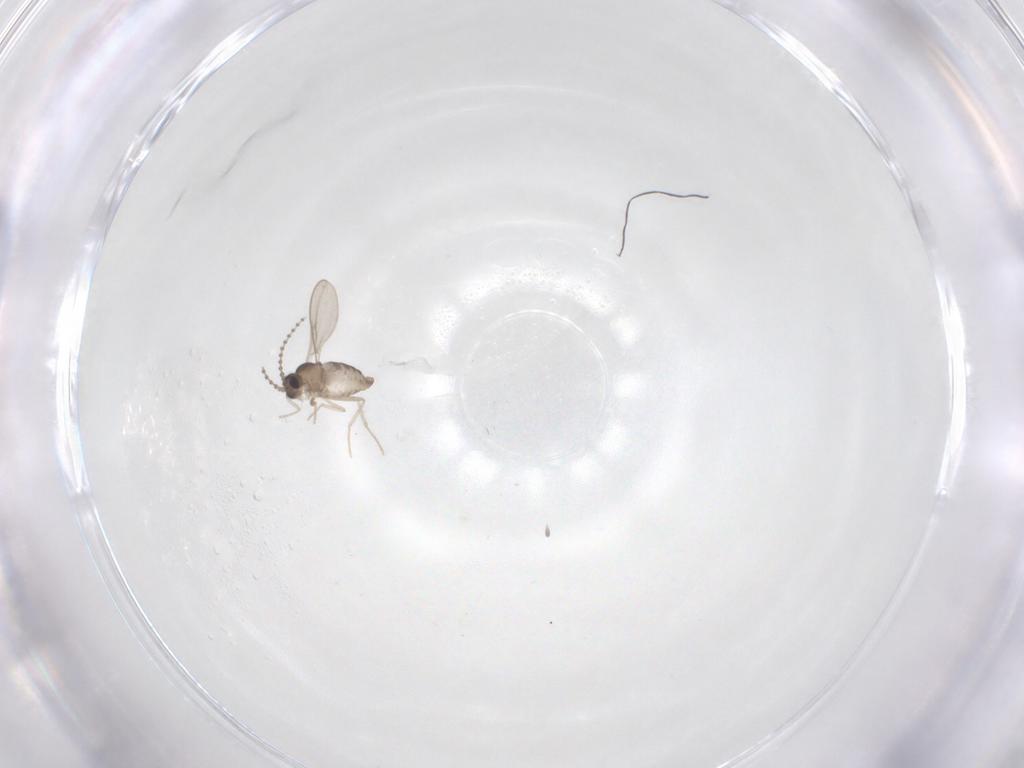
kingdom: Animalia
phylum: Arthropoda
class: Insecta
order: Diptera
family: Cecidomyiidae
